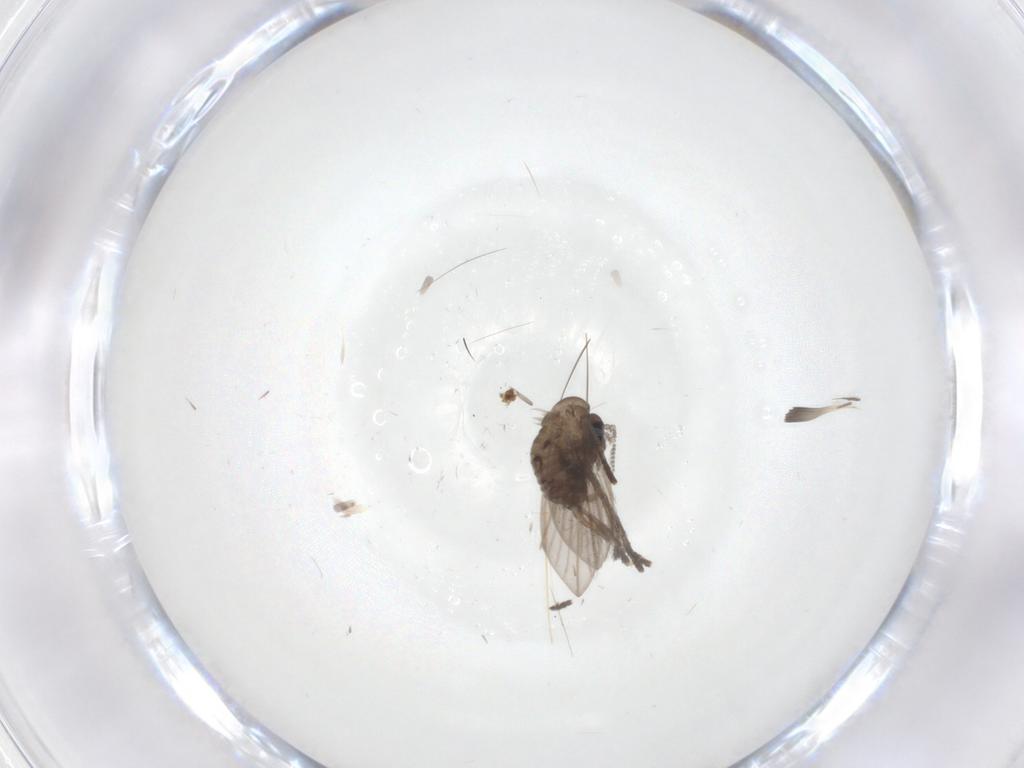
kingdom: Animalia
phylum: Arthropoda
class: Insecta
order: Diptera
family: Psychodidae
